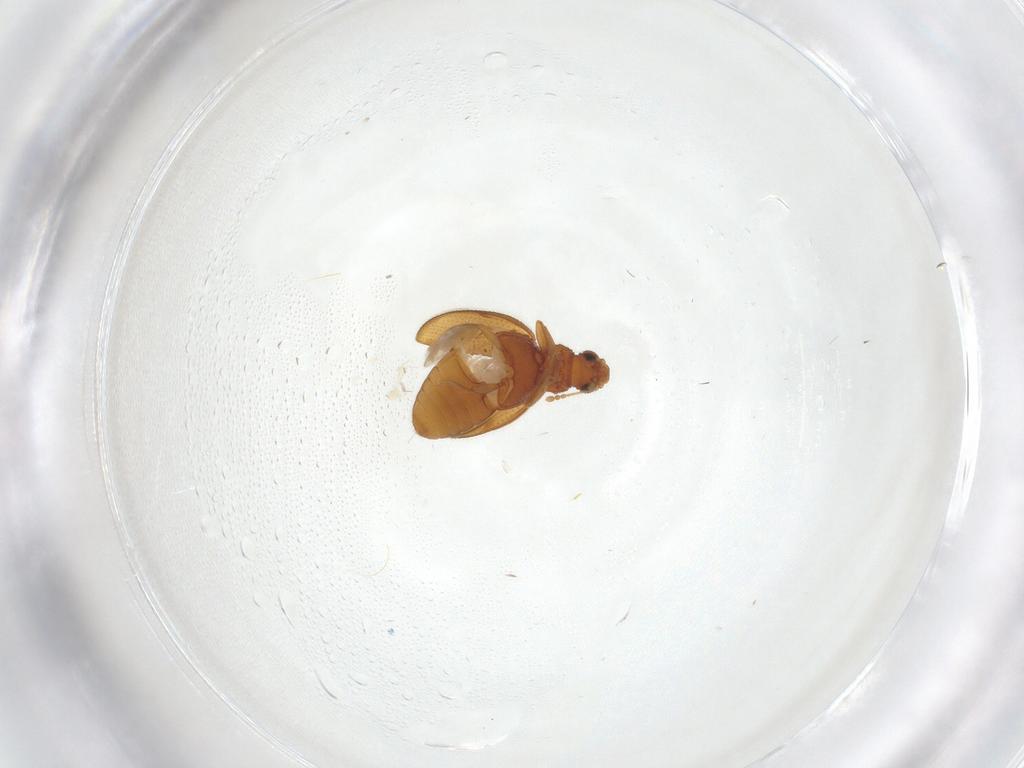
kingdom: Animalia
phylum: Arthropoda
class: Insecta
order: Coleoptera
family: Latridiidae
